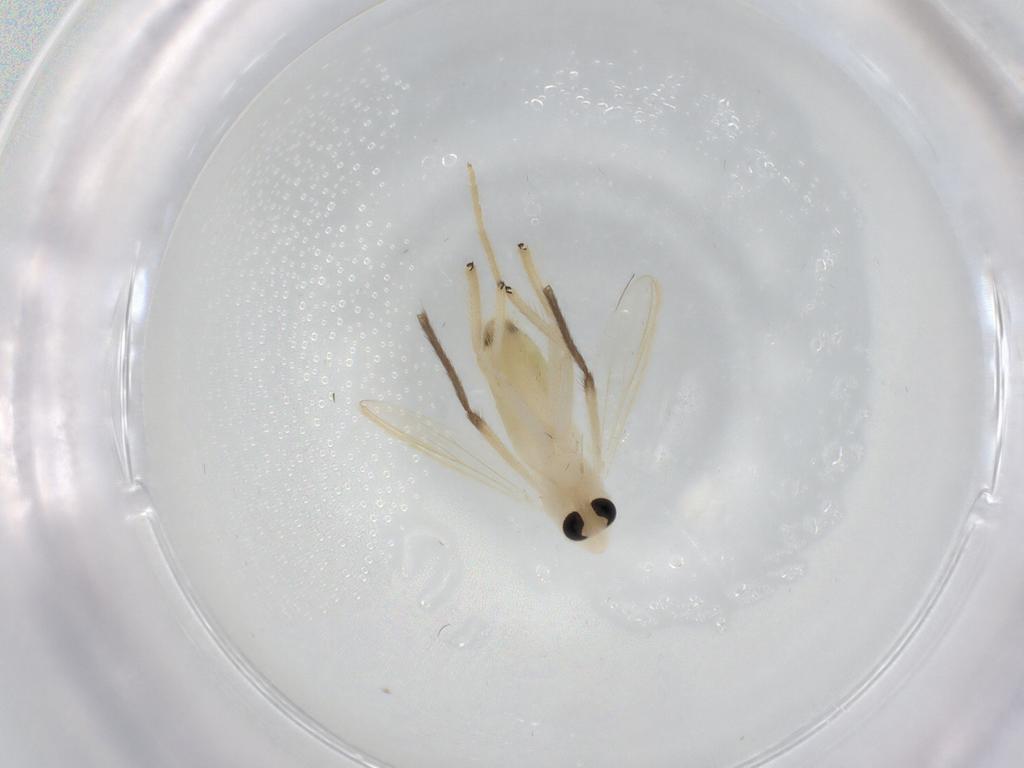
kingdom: Animalia
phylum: Arthropoda
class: Insecta
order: Diptera
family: Chironomidae
